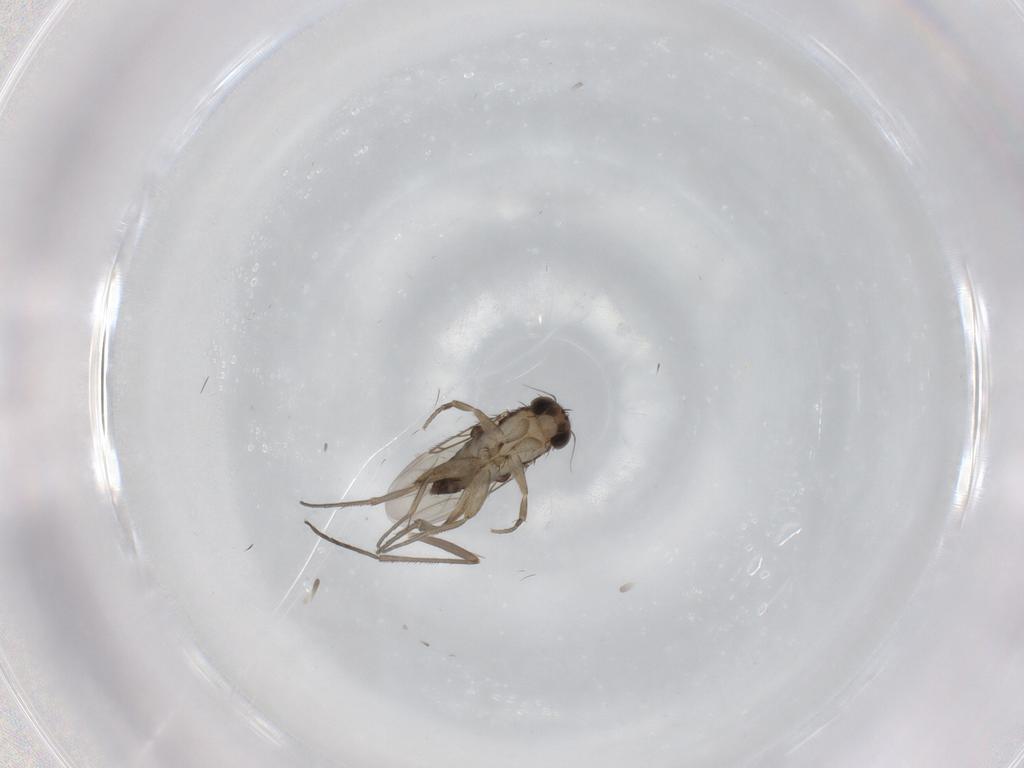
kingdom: Animalia
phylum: Arthropoda
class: Insecta
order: Diptera
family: Phoridae
